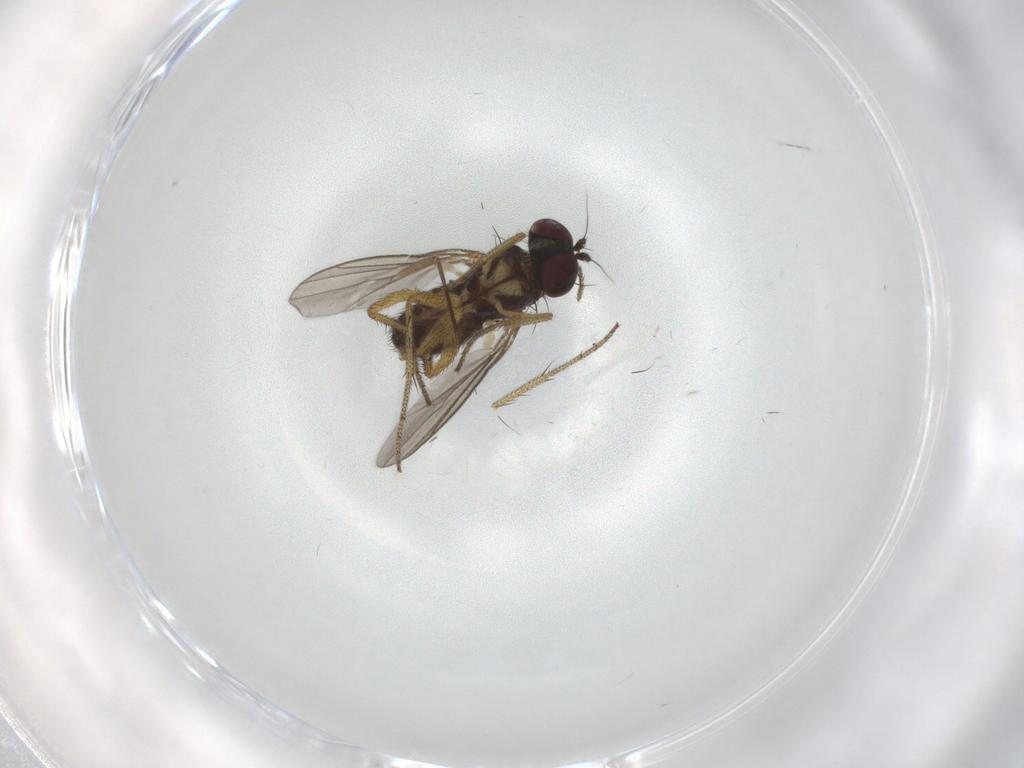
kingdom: Animalia
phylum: Arthropoda
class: Insecta
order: Diptera
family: Dolichopodidae
